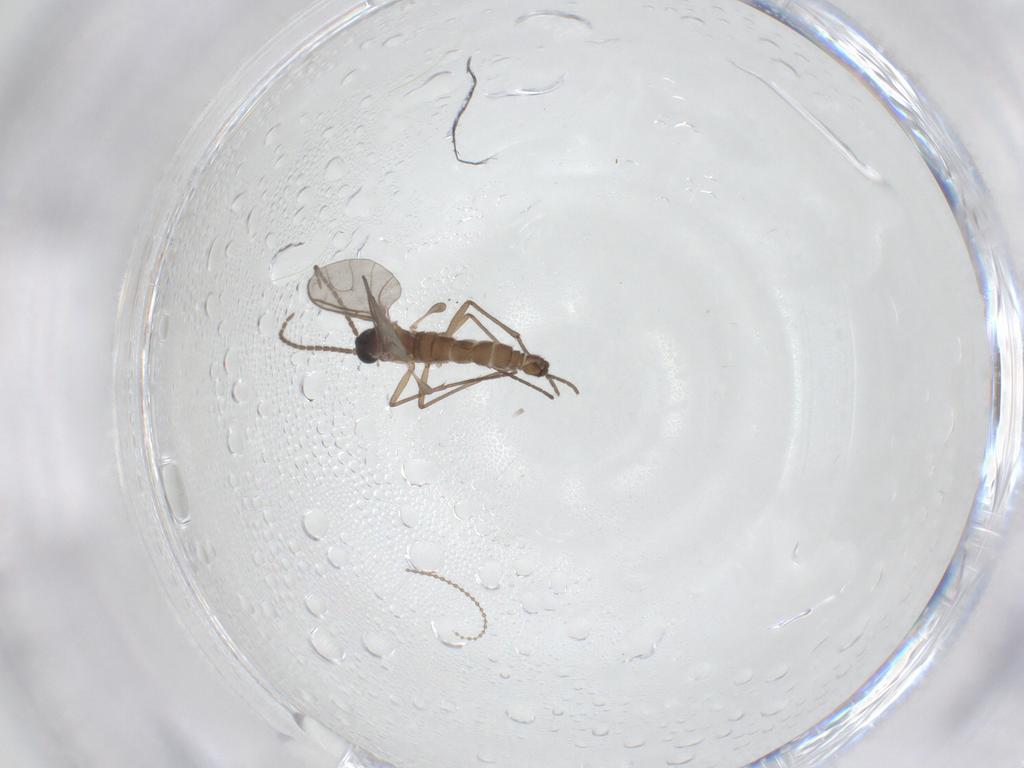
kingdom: Animalia
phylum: Arthropoda
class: Insecta
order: Diptera
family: Sciaridae
